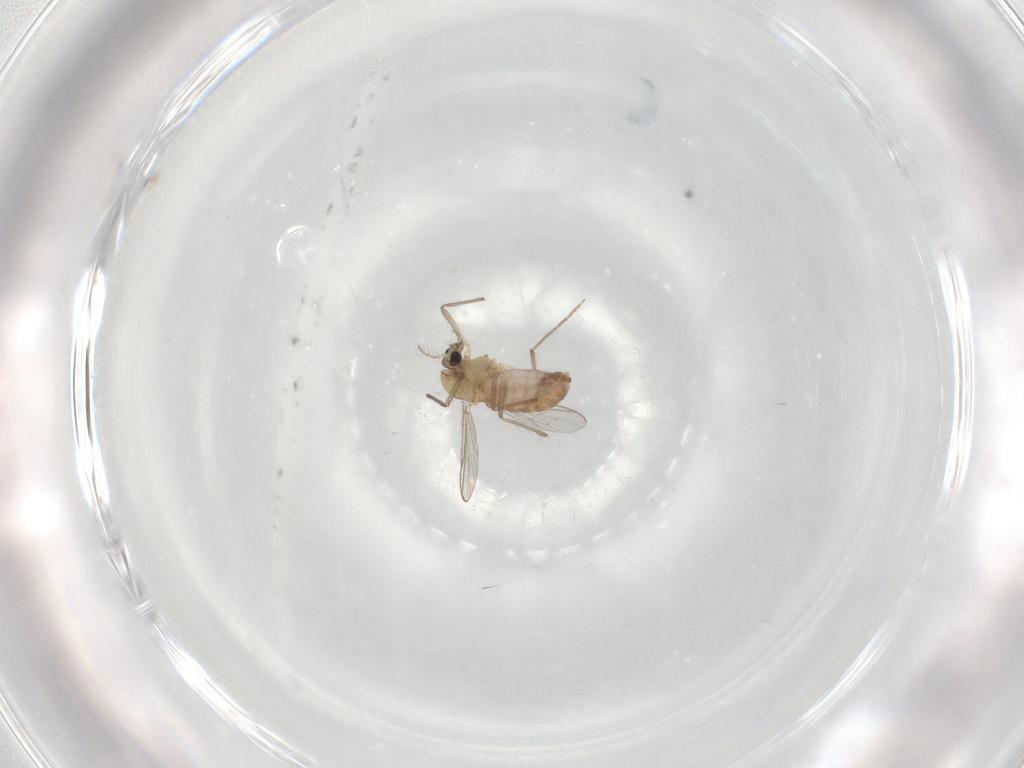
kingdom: Animalia
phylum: Arthropoda
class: Insecta
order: Diptera
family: Chironomidae
